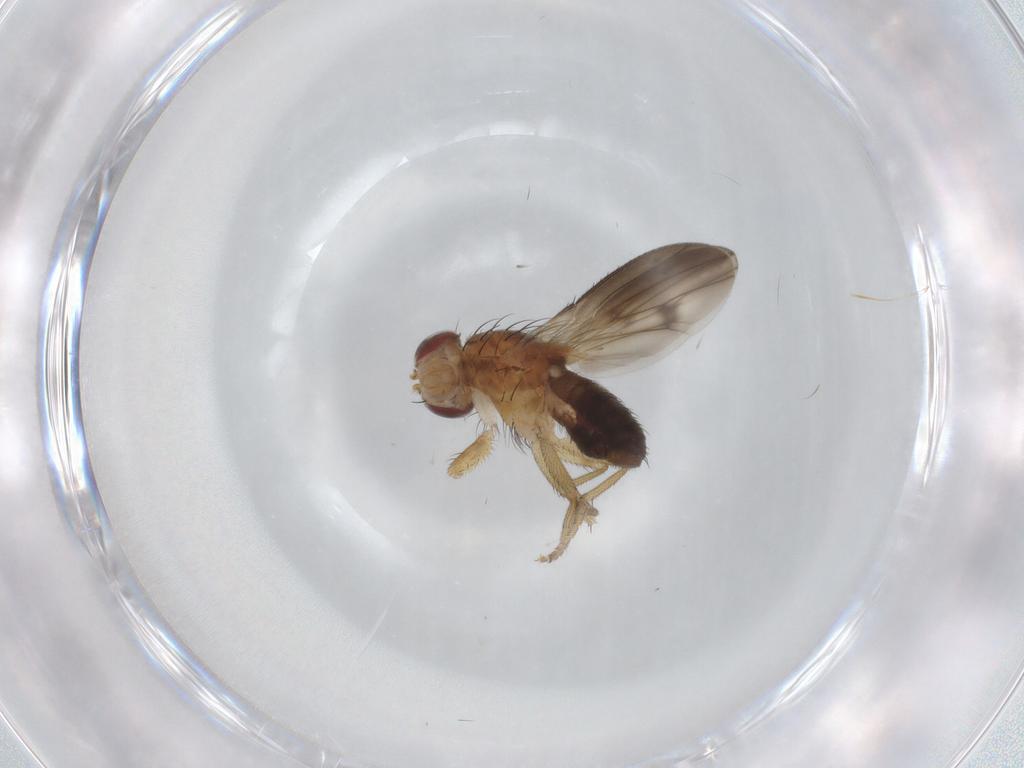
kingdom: Animalia
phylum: Arthropoda
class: Insecta
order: Diptera
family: Heleomyzidae
